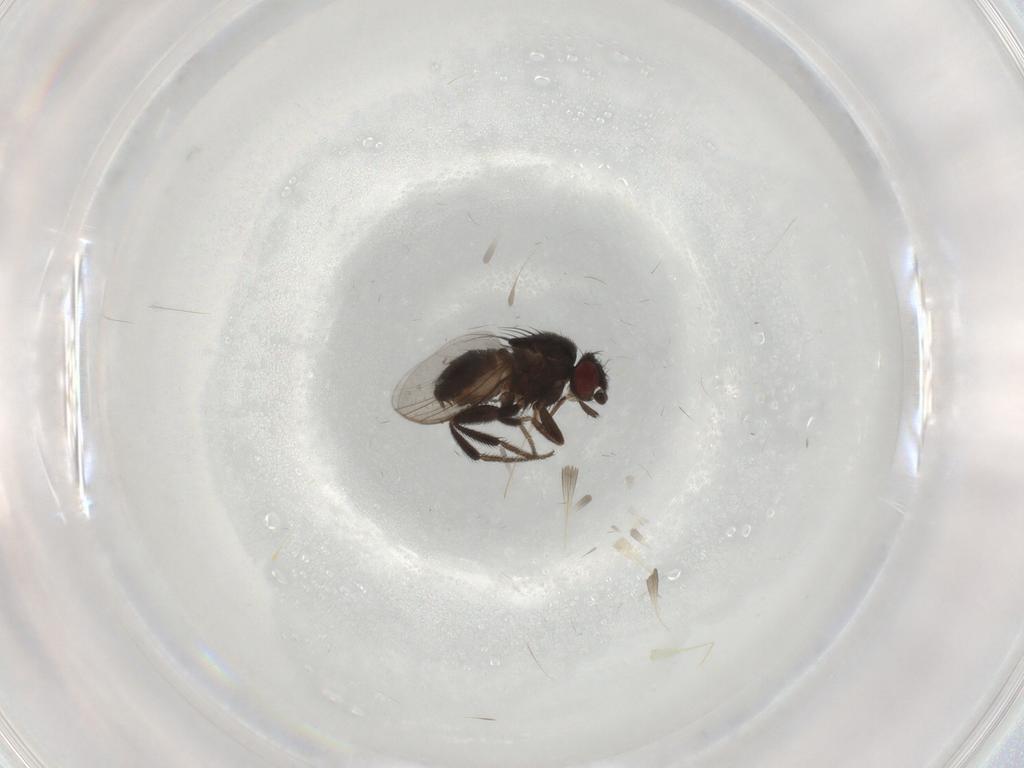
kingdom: Animalia
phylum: Arthropoda
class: Insecta
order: Diptera
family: Milichiidae
